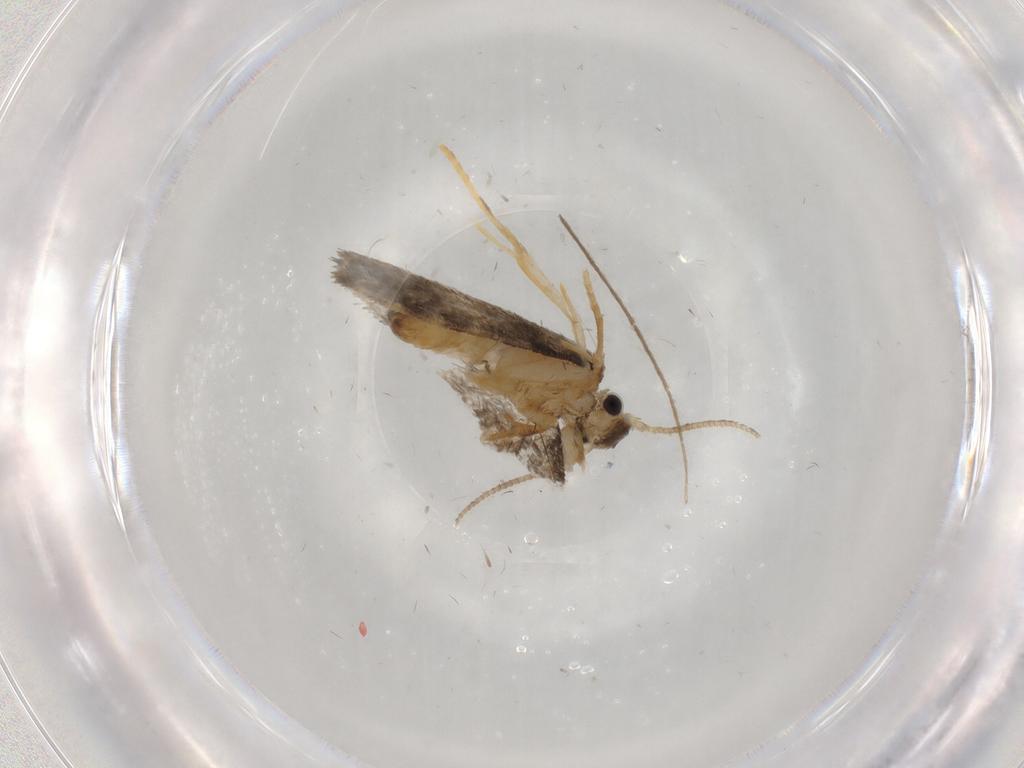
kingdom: Animalia
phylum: Arthropoda
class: Insecta
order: Lepidoptera
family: Psychidae
